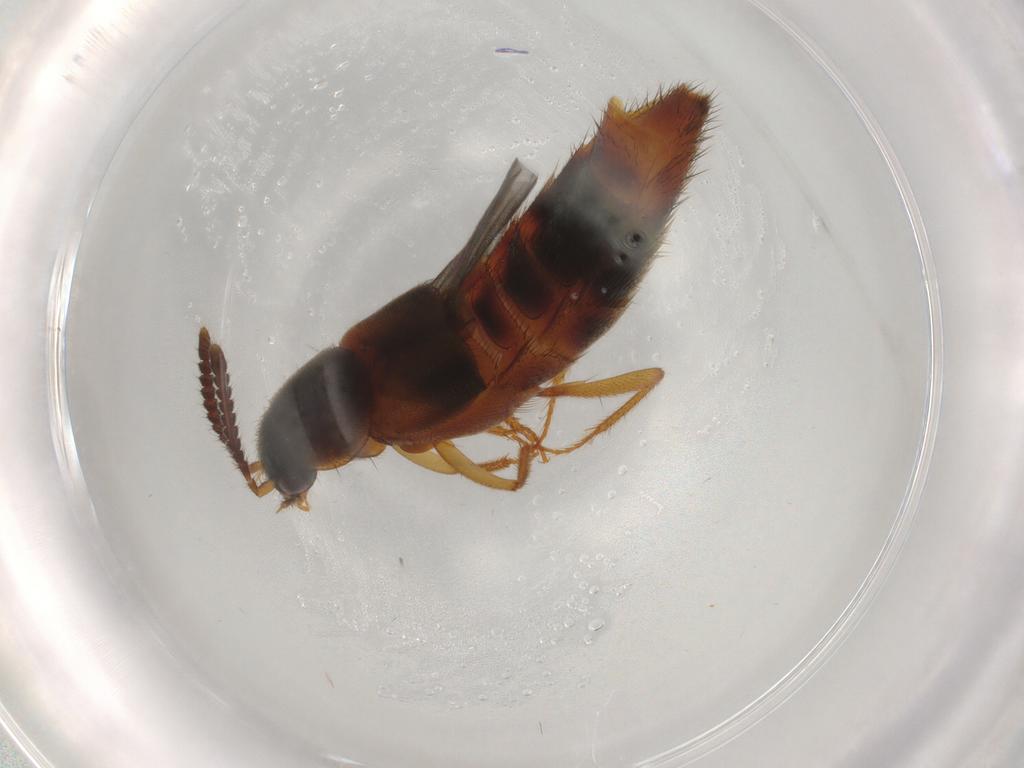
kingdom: Animalia
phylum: Arthropoda
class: Insecta
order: Coleoptera
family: Staphylinidae
